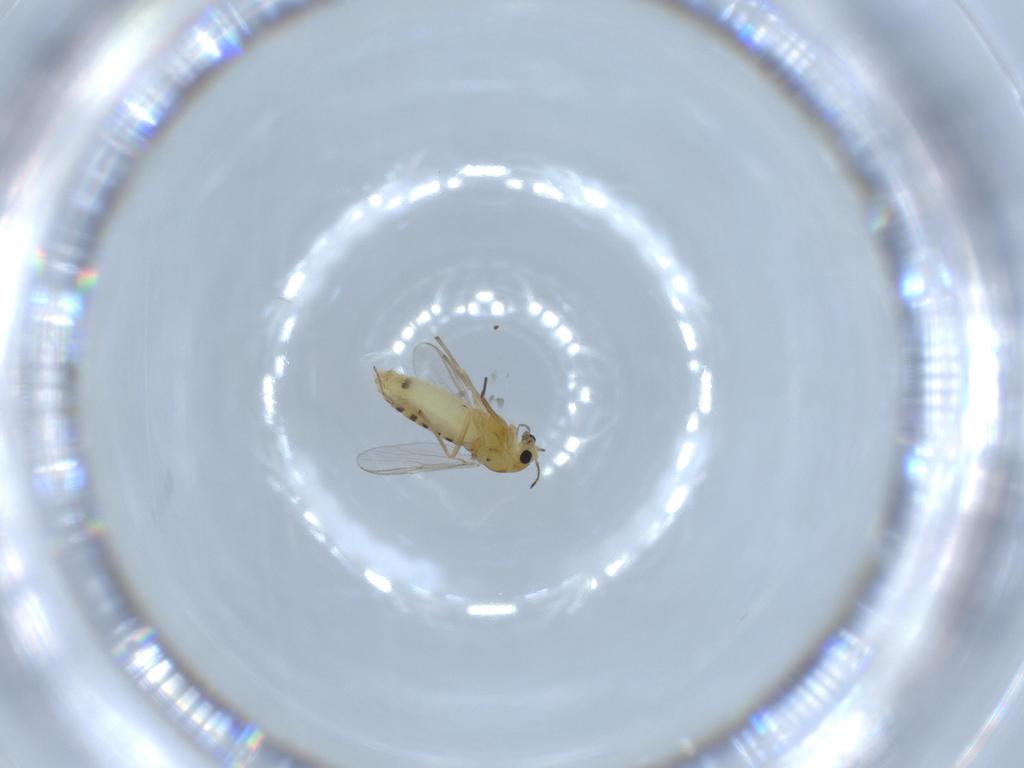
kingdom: Animalia
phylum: Arthropoda
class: Insecta
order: Diptera
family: Chironomidae
